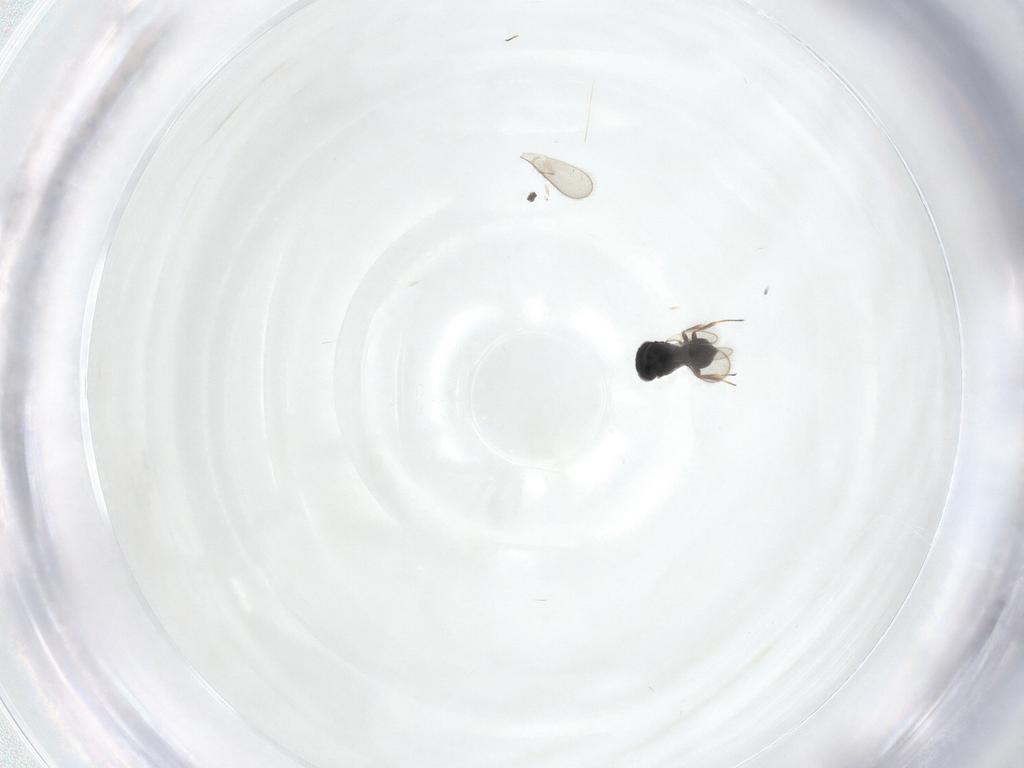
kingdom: Animalia
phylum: Arthropoda
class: Insecta
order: Hymenoptera
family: Scelionidae
